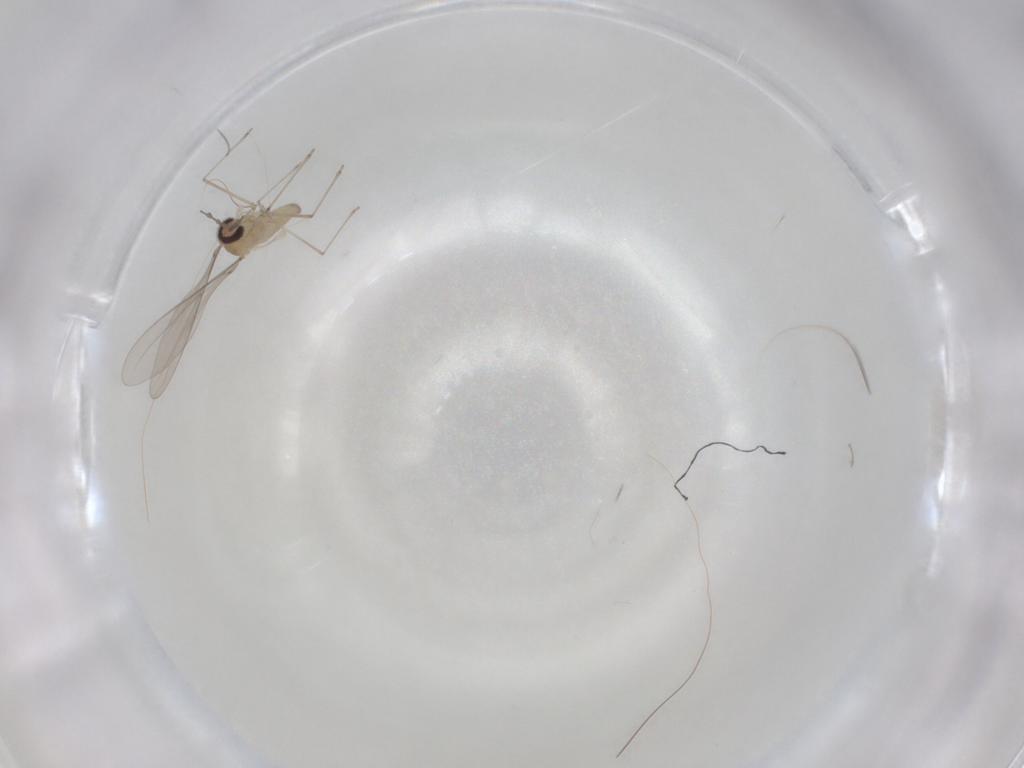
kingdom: Animalia
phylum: Arthropoda
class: Insecta
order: Diptera
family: Cecidomyiidae
